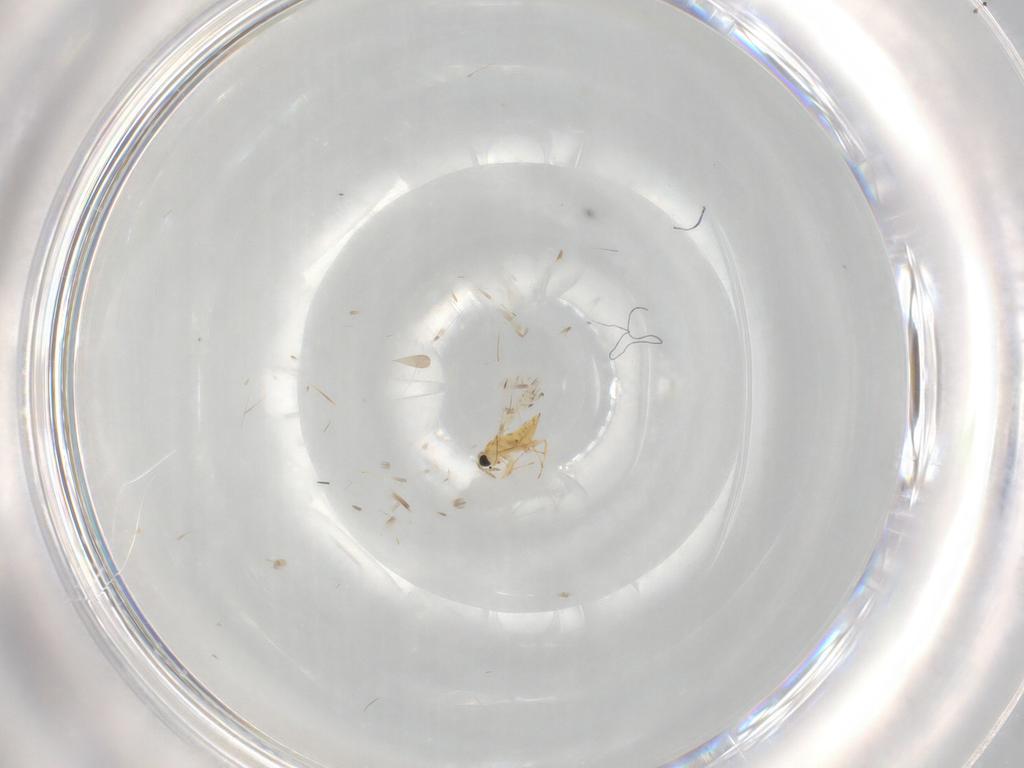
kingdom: Animalia
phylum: Arthropoda
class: Insecta
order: Hymenoptera
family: Trichogrammatidae
